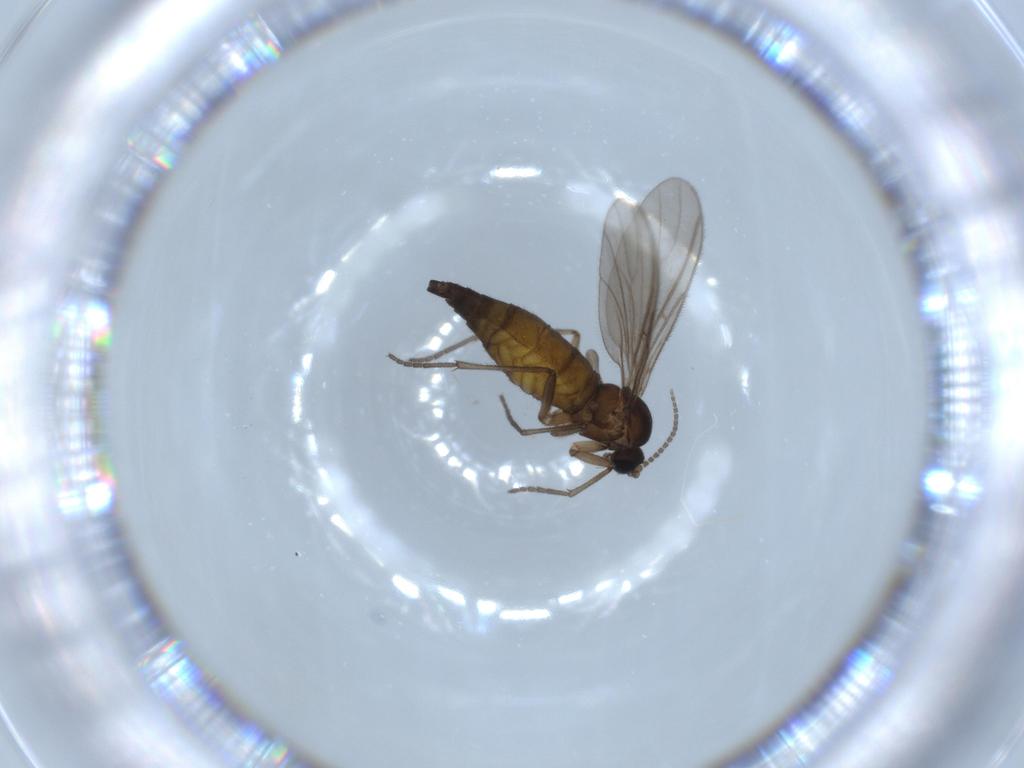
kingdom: Animalia
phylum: Arthropoda
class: Insecta
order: Diptera
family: Sciaridae
